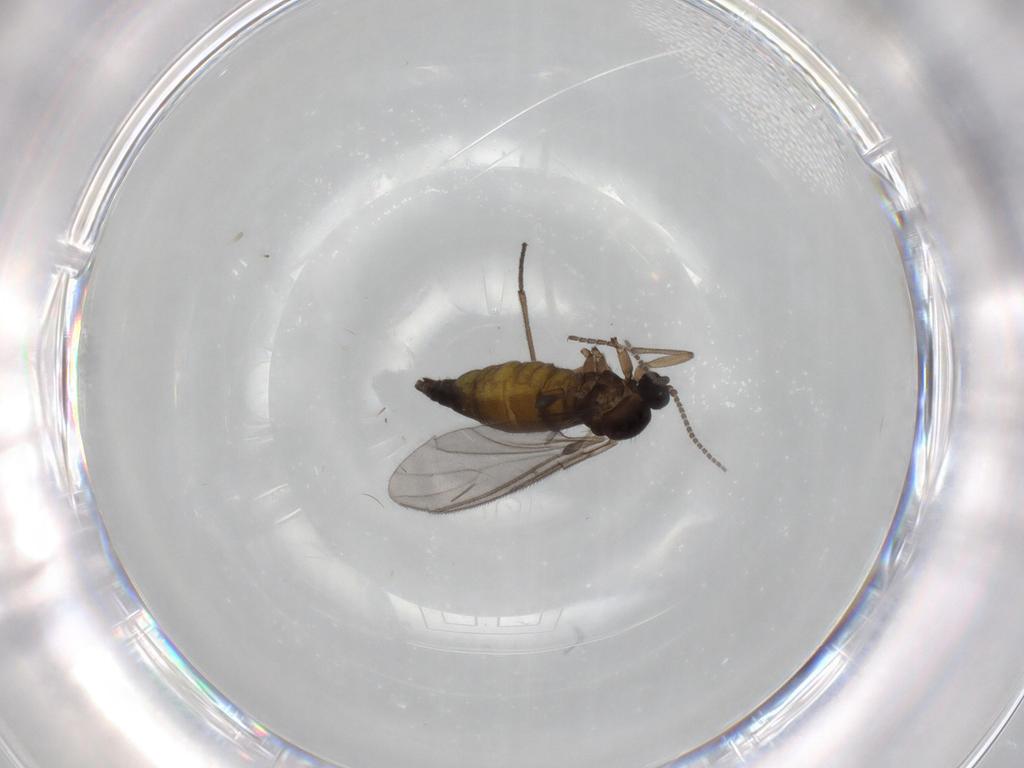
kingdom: Animalia
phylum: Arthropoda
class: Insecta
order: Diptera
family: Sciaridae
